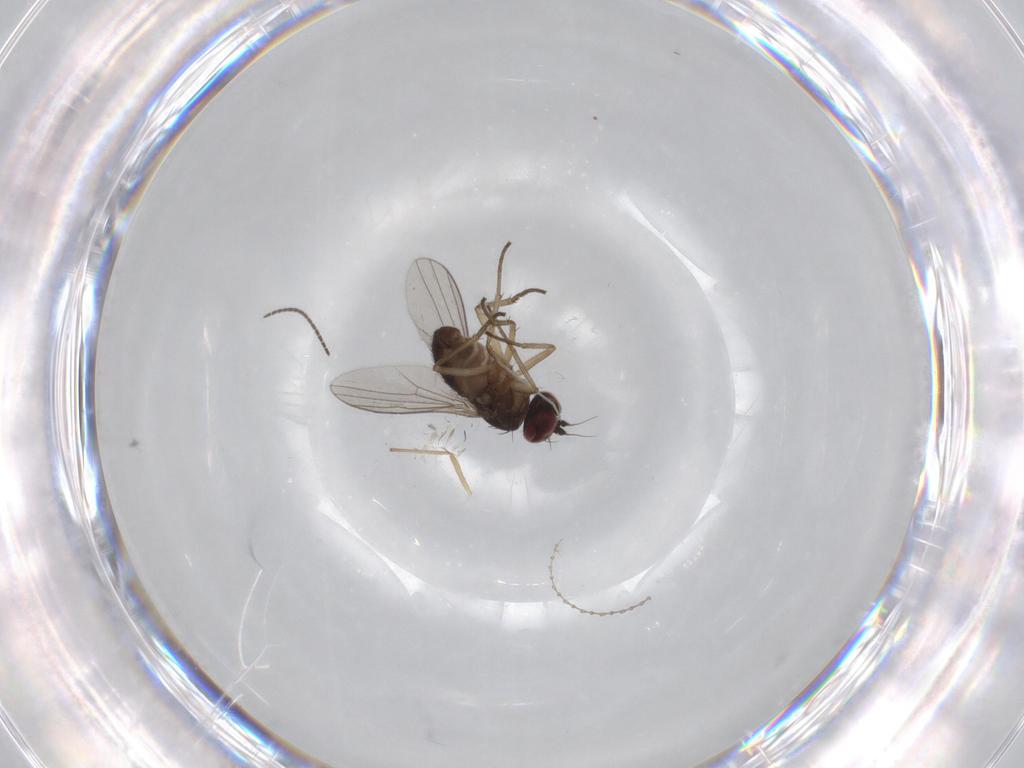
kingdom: Animalia
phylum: Arthropoda
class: Insecta
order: Diptera
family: Dolichopodidae
